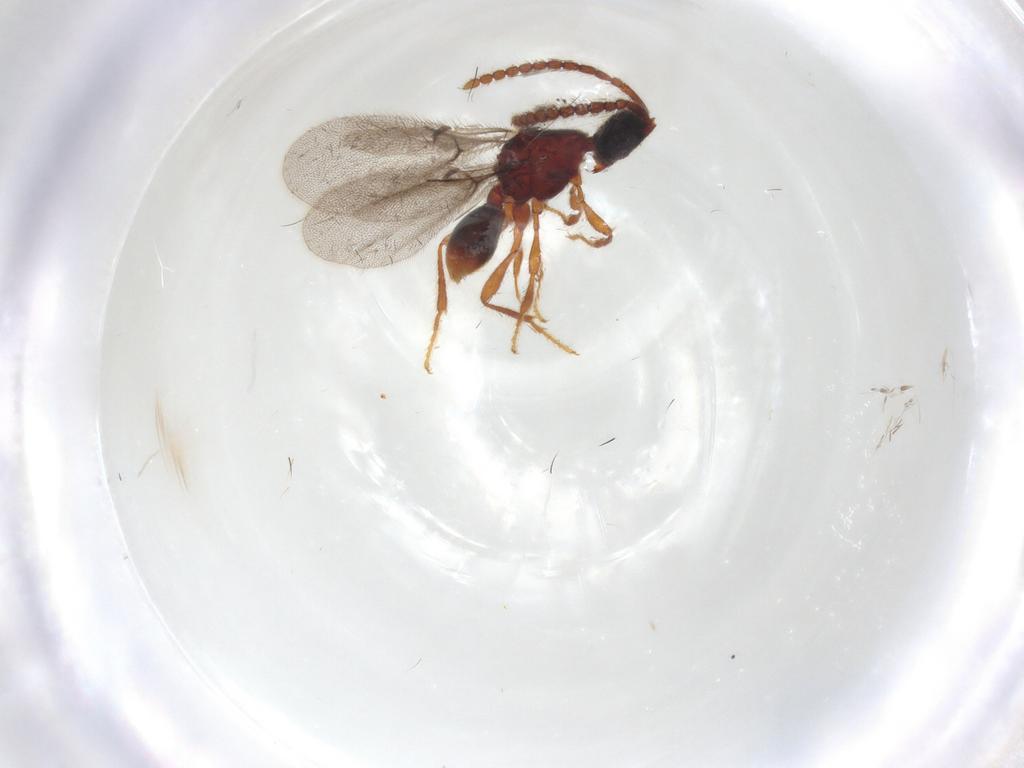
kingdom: Animalia
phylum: Arthropoda
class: Insecta
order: Hymenoptera
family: Diapriidae
